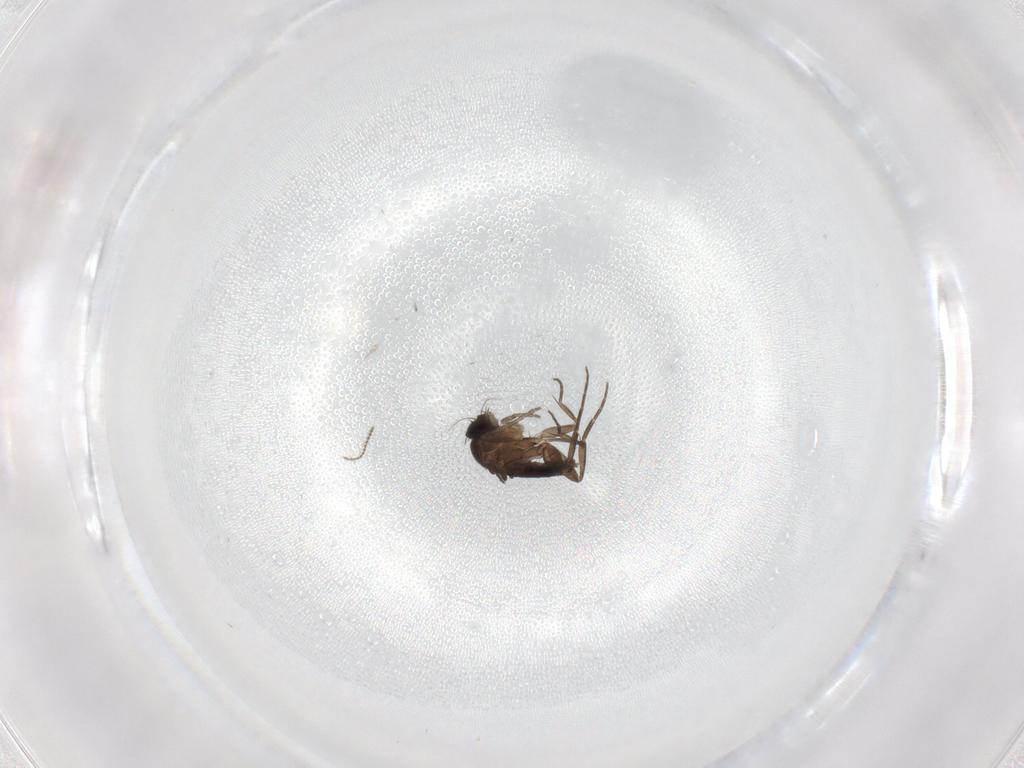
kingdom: Animalia
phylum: Arthropoda
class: Insecta
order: Diptera
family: Phoridae
